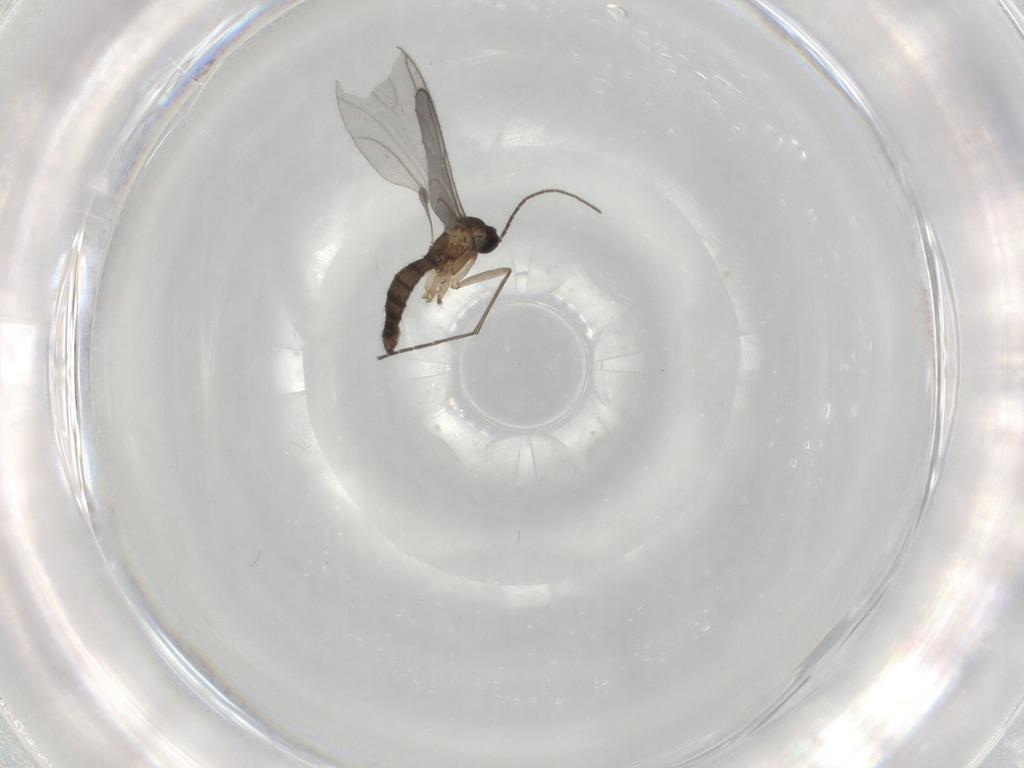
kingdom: Animalia
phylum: Arthropoda
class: Insecta
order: Diptera
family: Sciaridae
